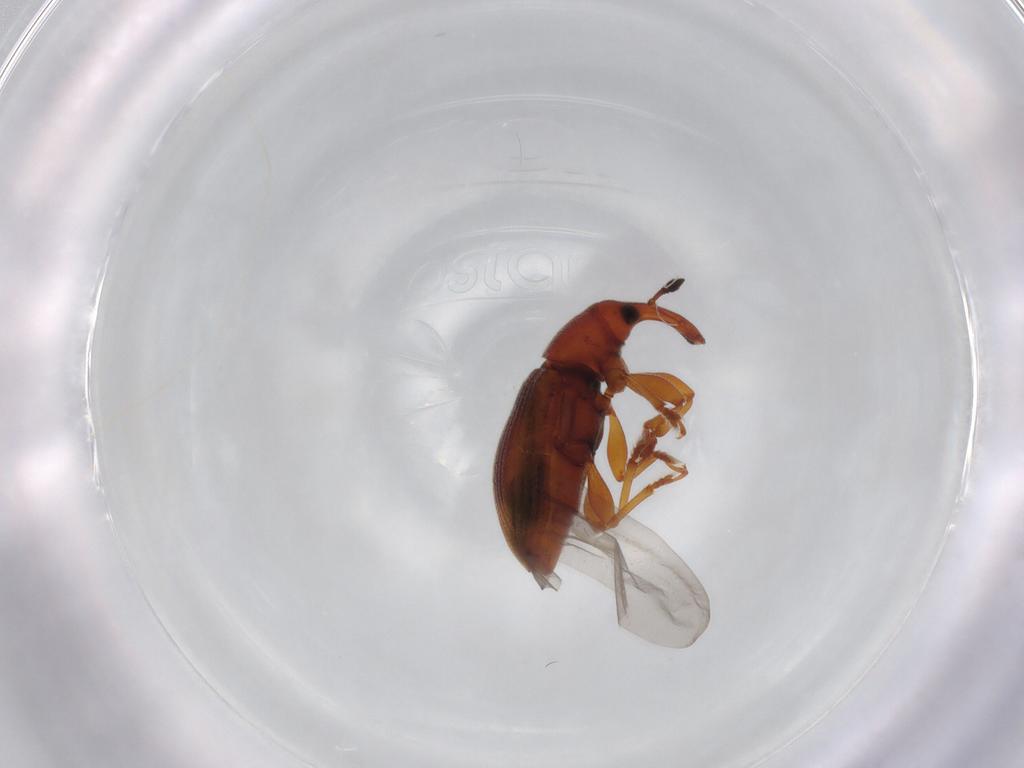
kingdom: Animalia
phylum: Arthropoda
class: Insecta
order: Coleoptera
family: Curculionidae
